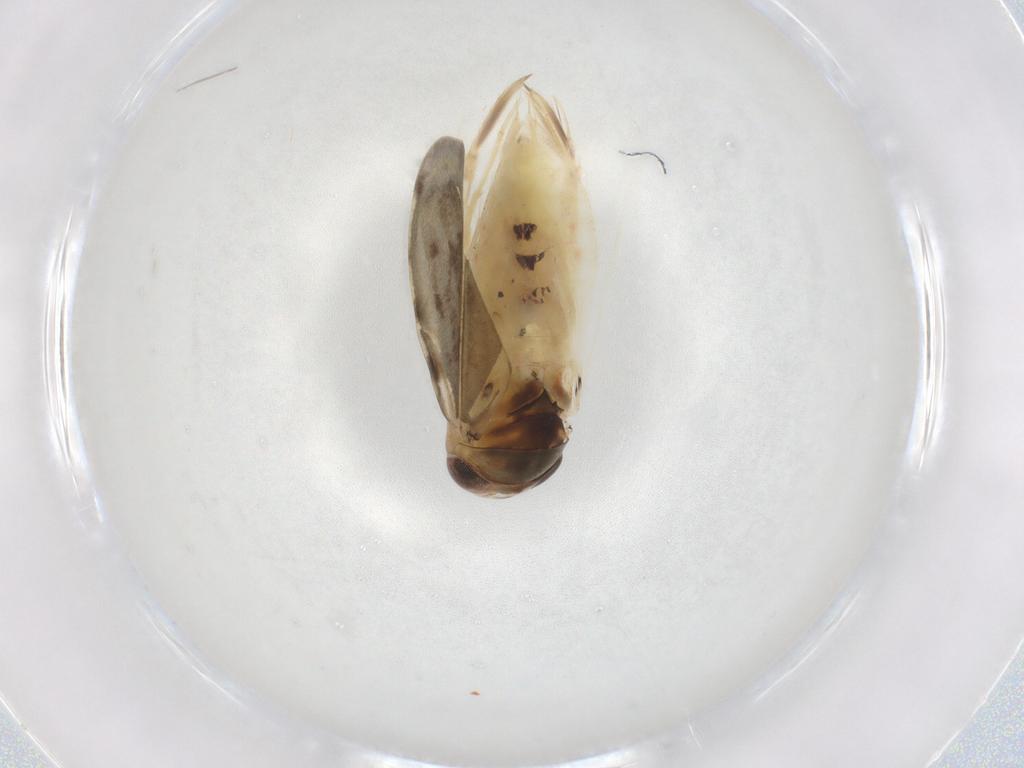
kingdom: Animalia
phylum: Arthropoda
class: Insecta
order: Hemiptera
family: Corixidae
